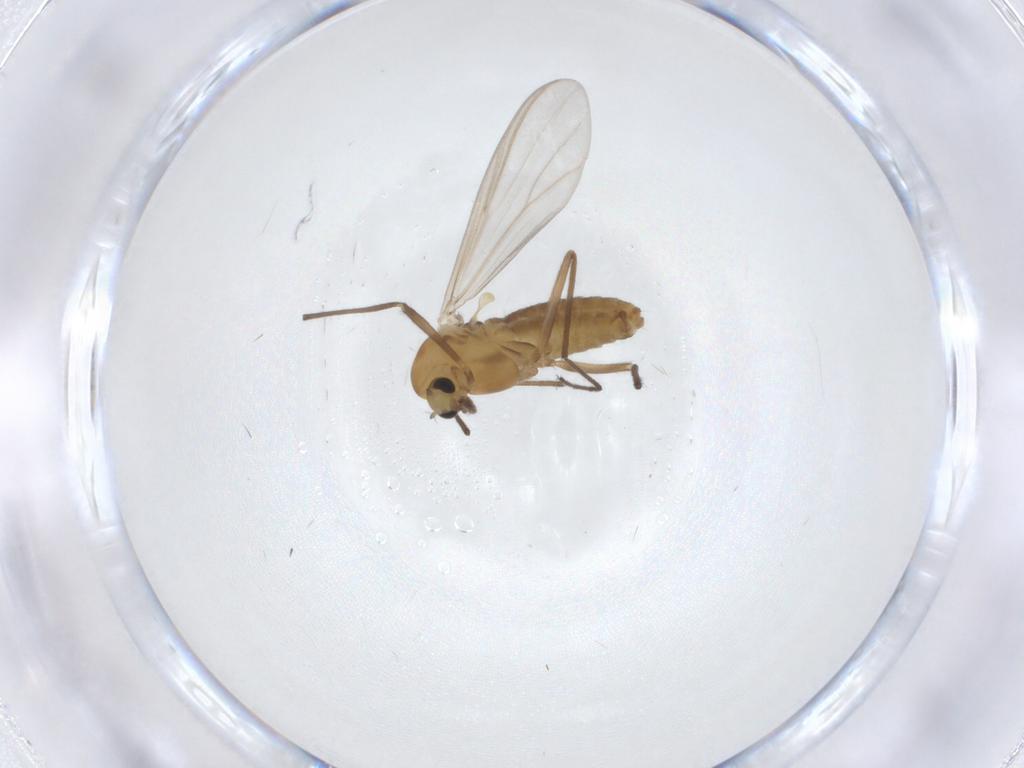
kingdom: Animalia
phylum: Arthropoda
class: Insecta
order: Diptera
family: Chironomidae
